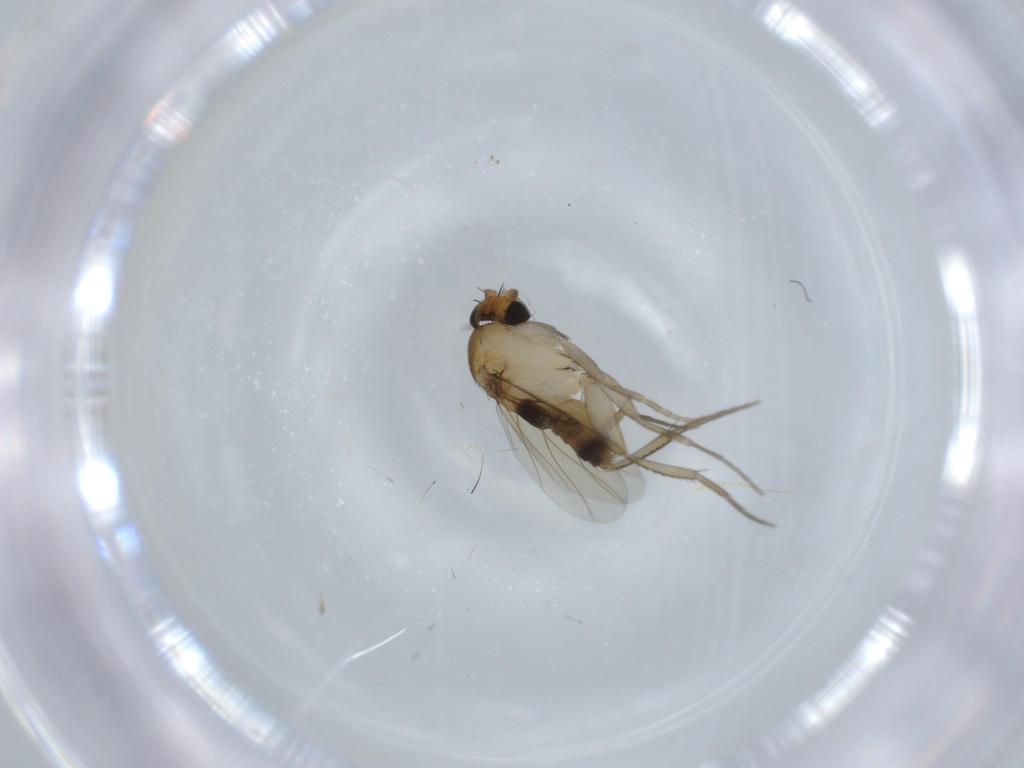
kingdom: Animalia
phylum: Arthropoda
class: Insecta
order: Diptera
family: Phoridae
